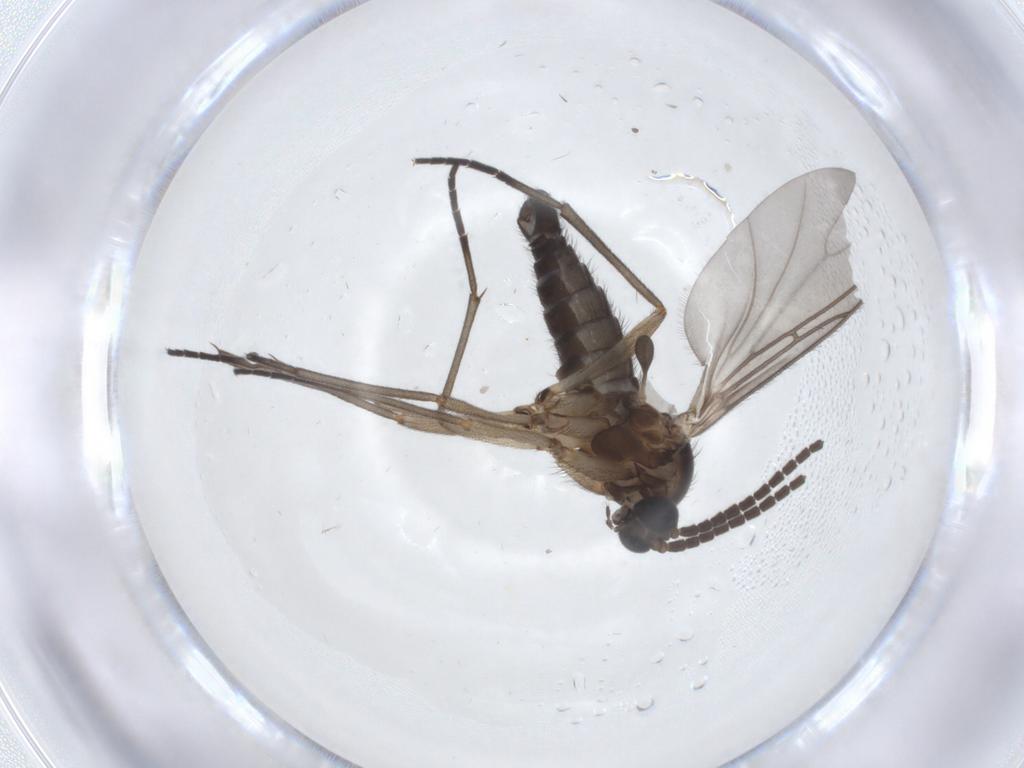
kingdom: Animalia
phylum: Arthropoda
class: Insecta
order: Diptera
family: Sciaridae
